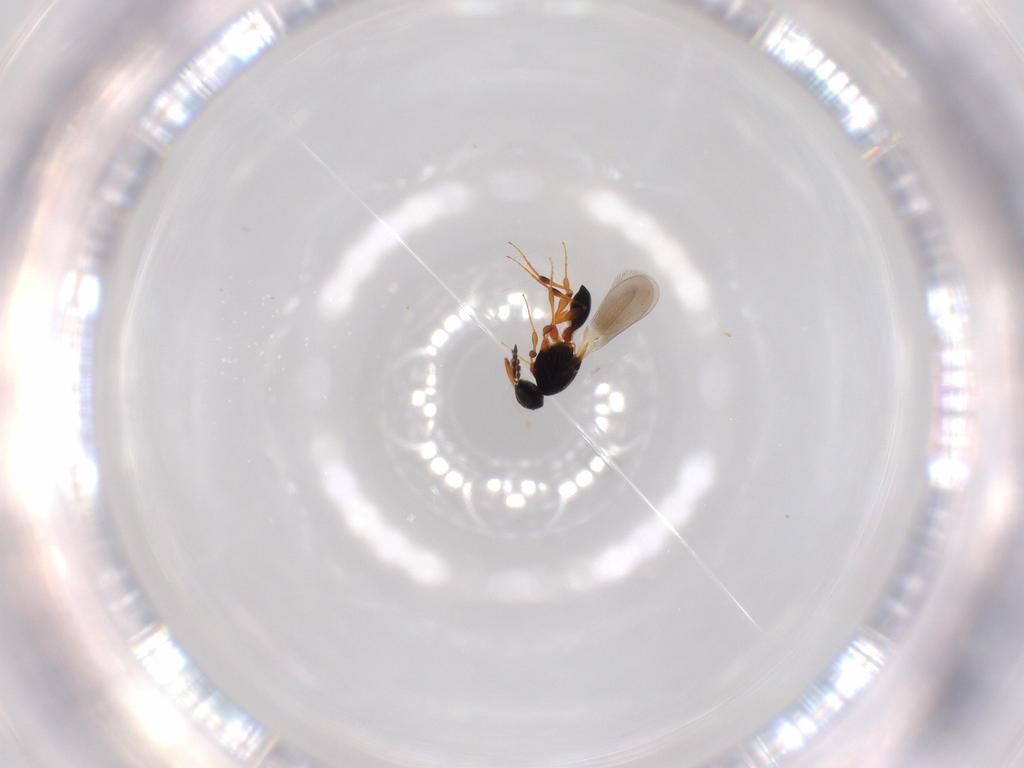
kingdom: Animalia
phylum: Arthropoda
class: Insecta
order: Hymenoptera
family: Platygastridae
